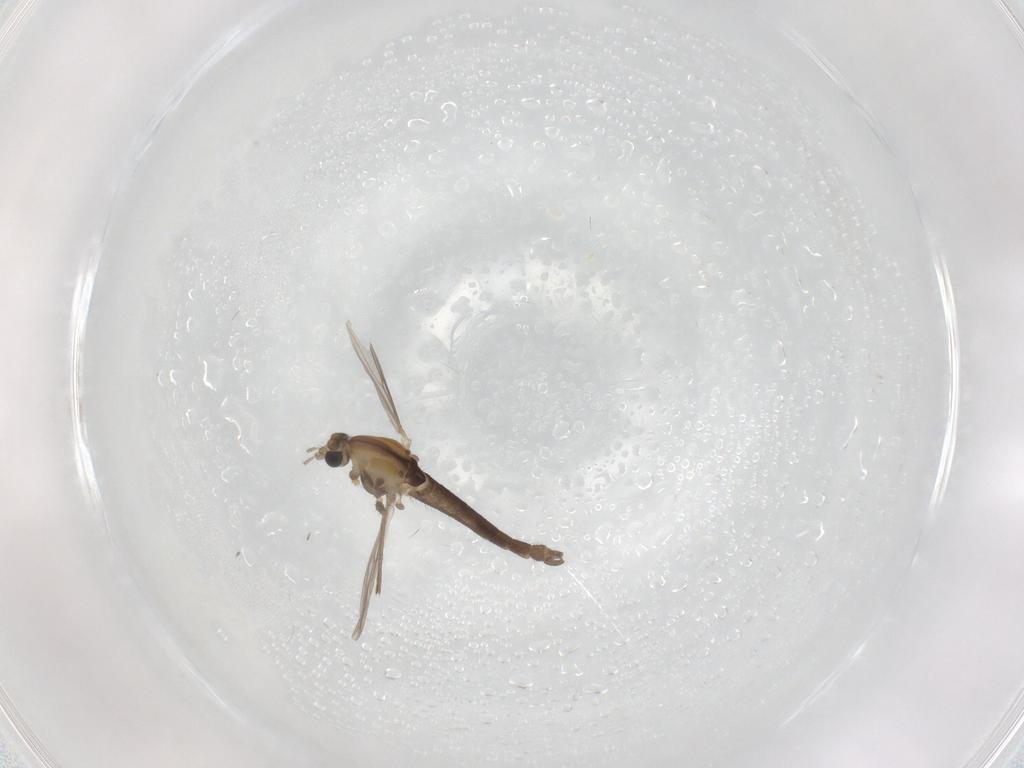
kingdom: Animalia
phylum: Arthropoda
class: Insecta
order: Diptera
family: Chironomidae
